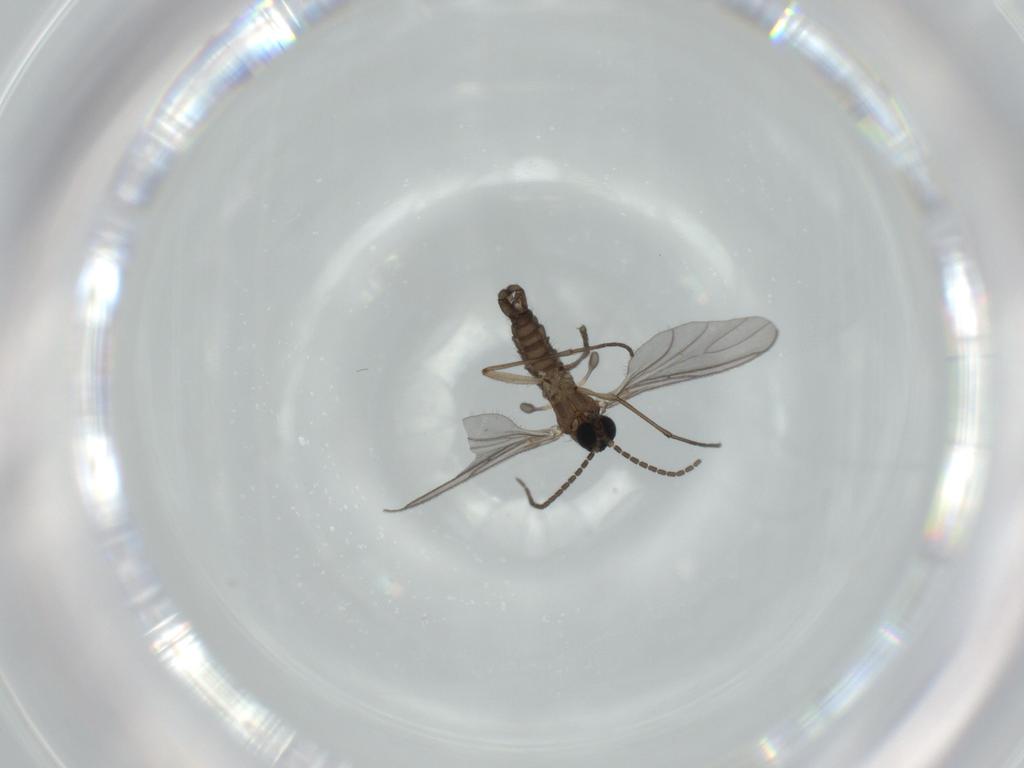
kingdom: Animalia
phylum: Arthropoda
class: Insecta
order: Diptera
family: Sciaridae
